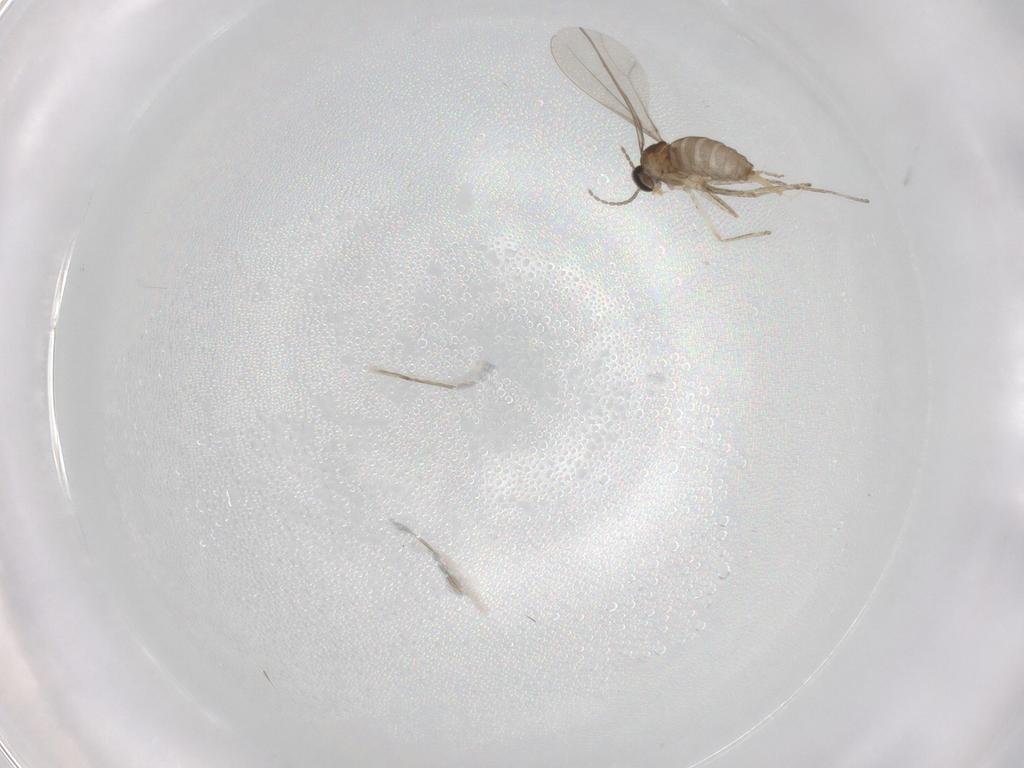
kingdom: Animalia
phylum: Arthropoda
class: Insecta
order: Diptera
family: Cecidomyiidae
